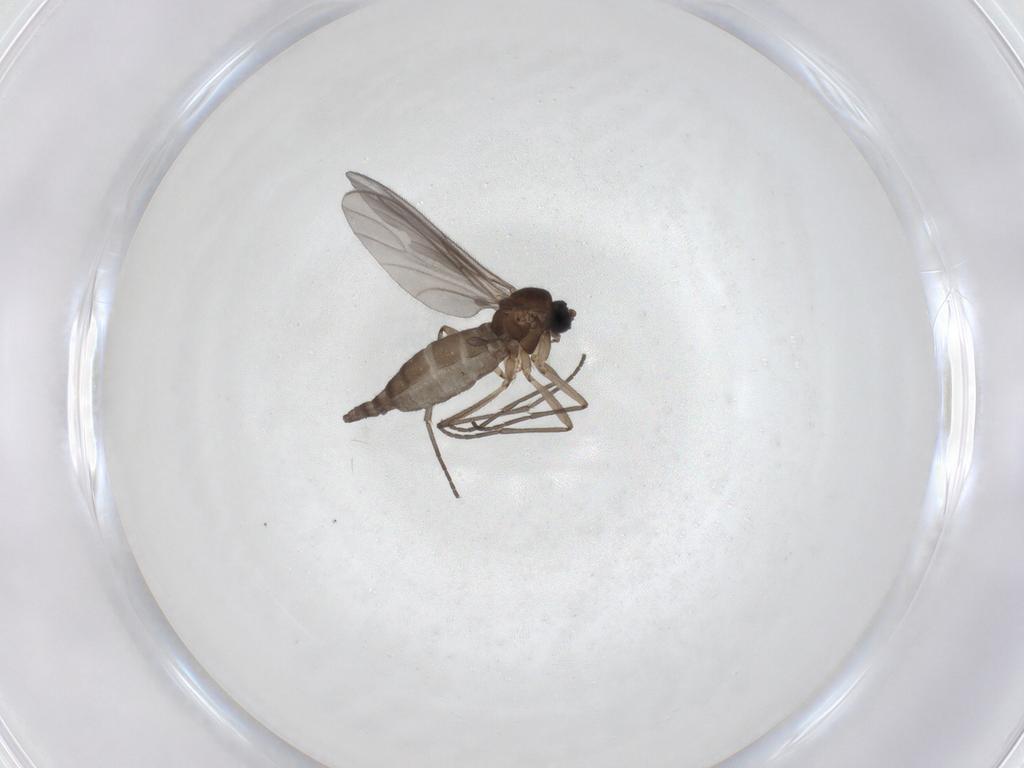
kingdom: Animalia
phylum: Arthropoda
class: Insecta
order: Diptera
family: Sciaridae
